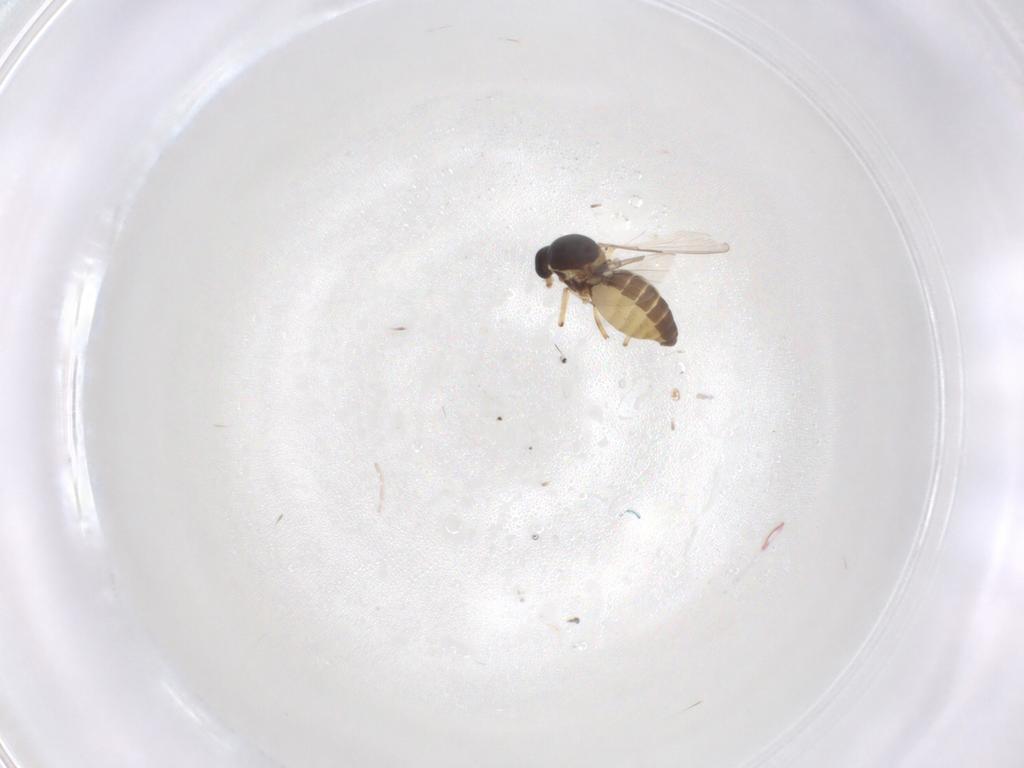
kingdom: Animalia
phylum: Arthropoda
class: Insecta
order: Diptera
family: Ceratopogonidae
